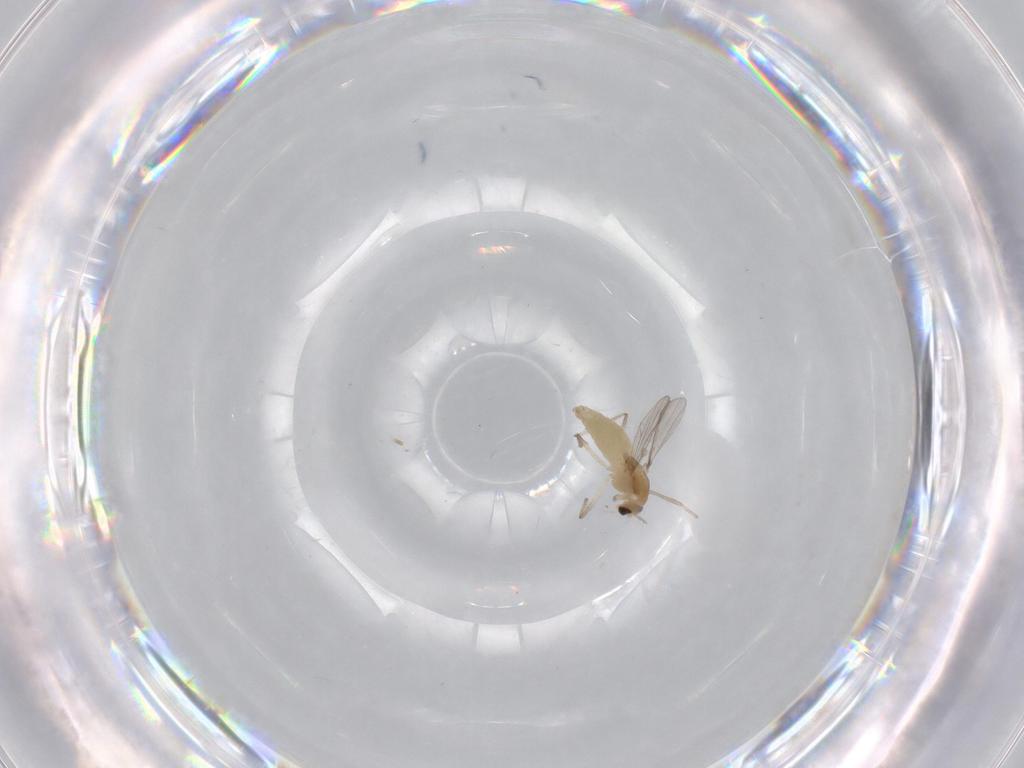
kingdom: Animalia
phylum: Arthropoda
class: Insecta
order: Diptera
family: Chironomidae
